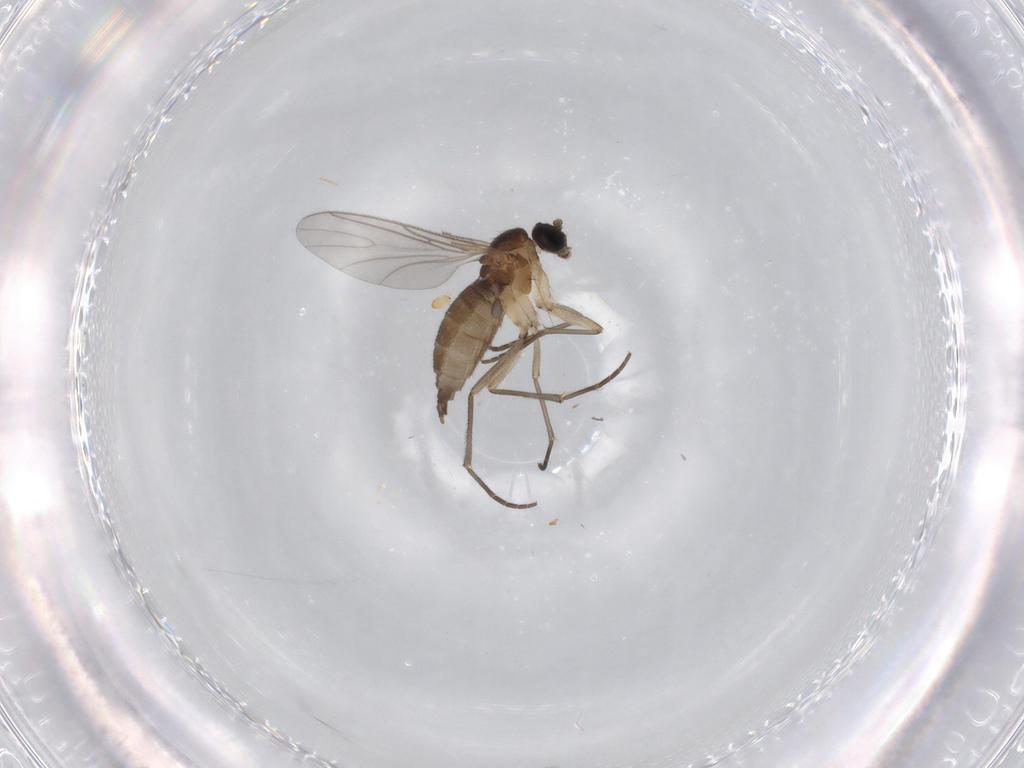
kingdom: Animalia
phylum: Arthropoda
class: Insecta
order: Diptera
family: Sciaridae
